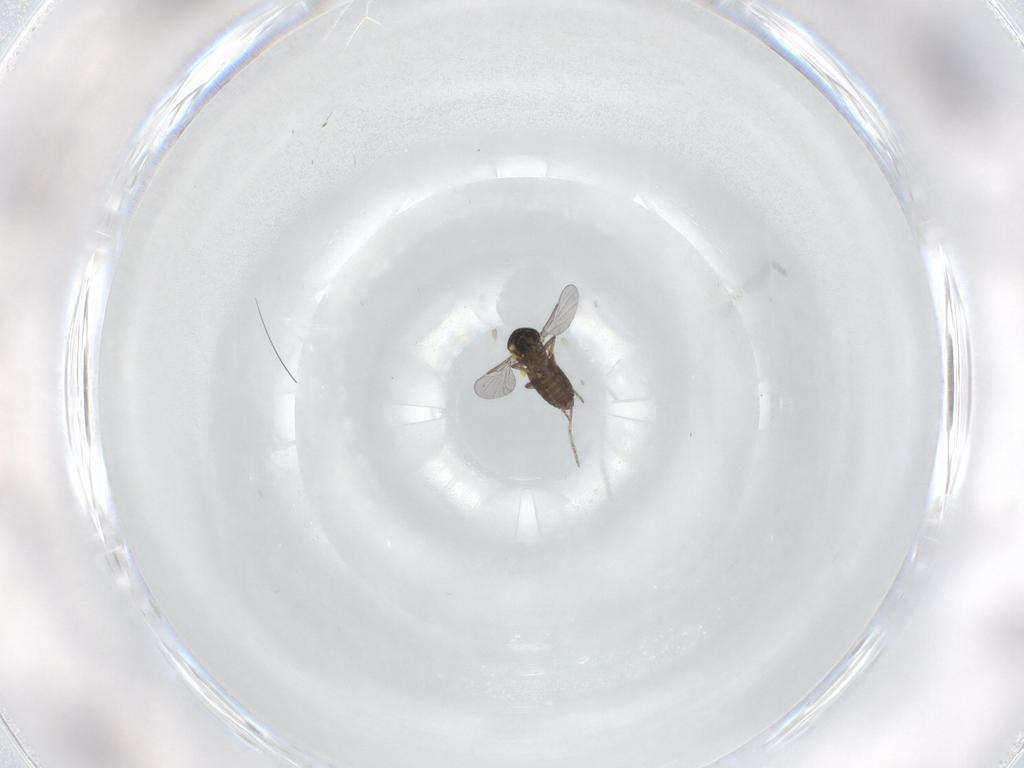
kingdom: Animalia
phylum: Arthropoda
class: Insecta
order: Diptera
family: Ceratopogonidae
